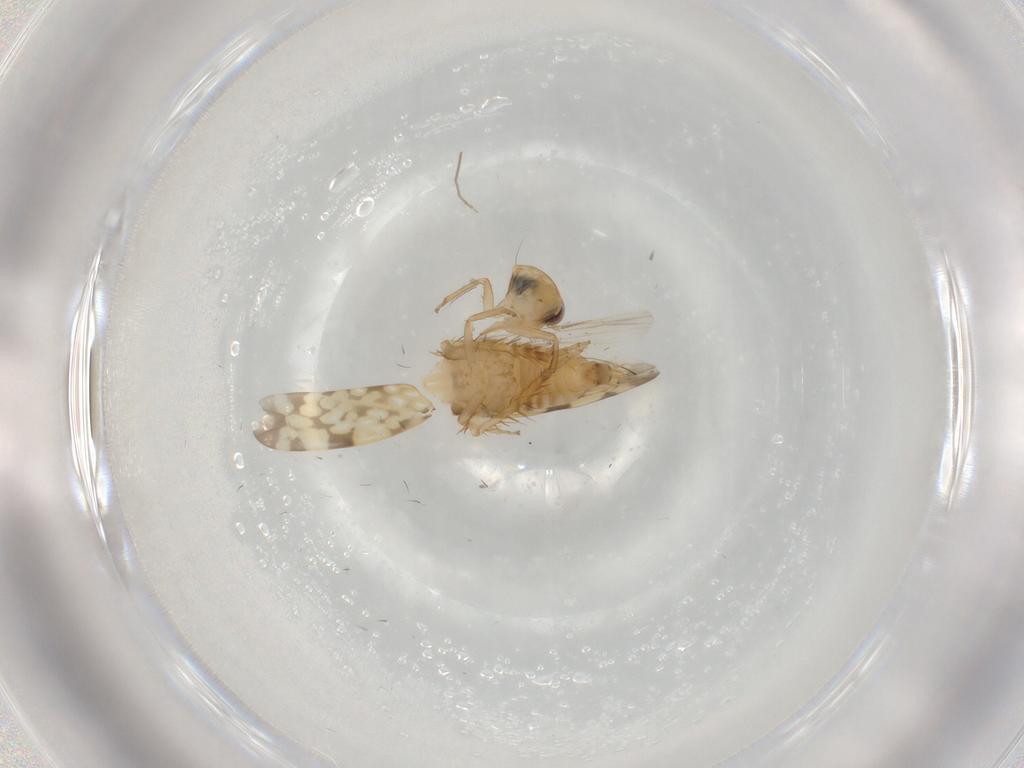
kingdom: Animalia
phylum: Arthropoda
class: Insecta
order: Hemiptera
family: Cicadellidae
